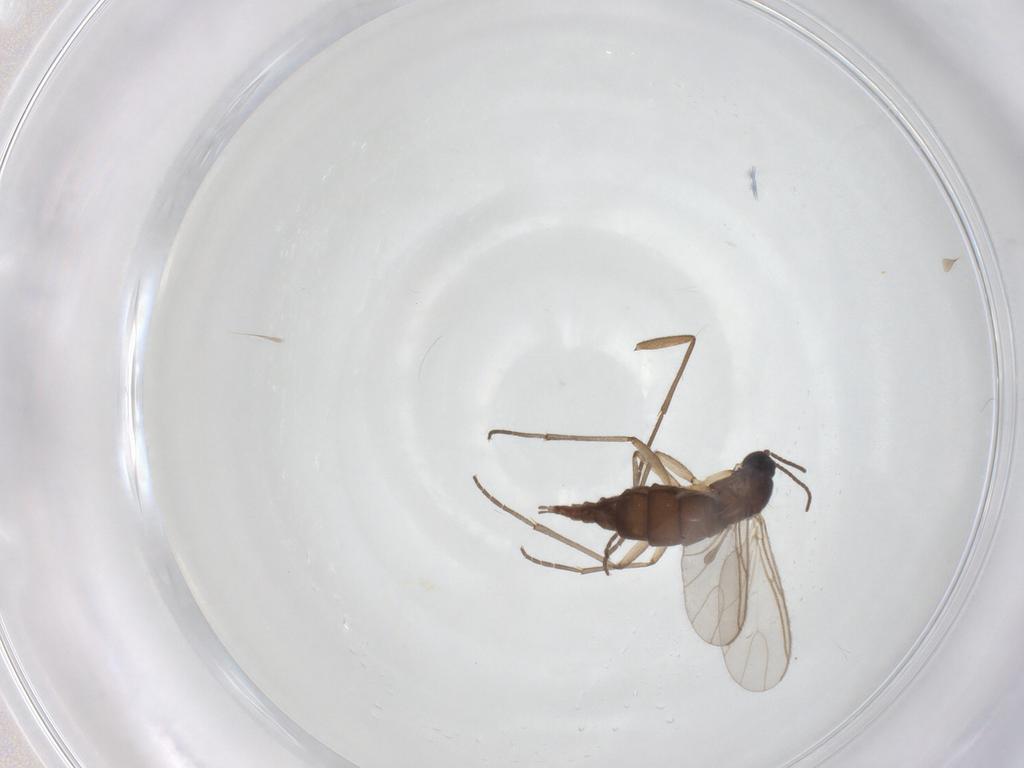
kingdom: Animalia
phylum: Arthropoda
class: Insecta
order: Diptera
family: Sciaridae
